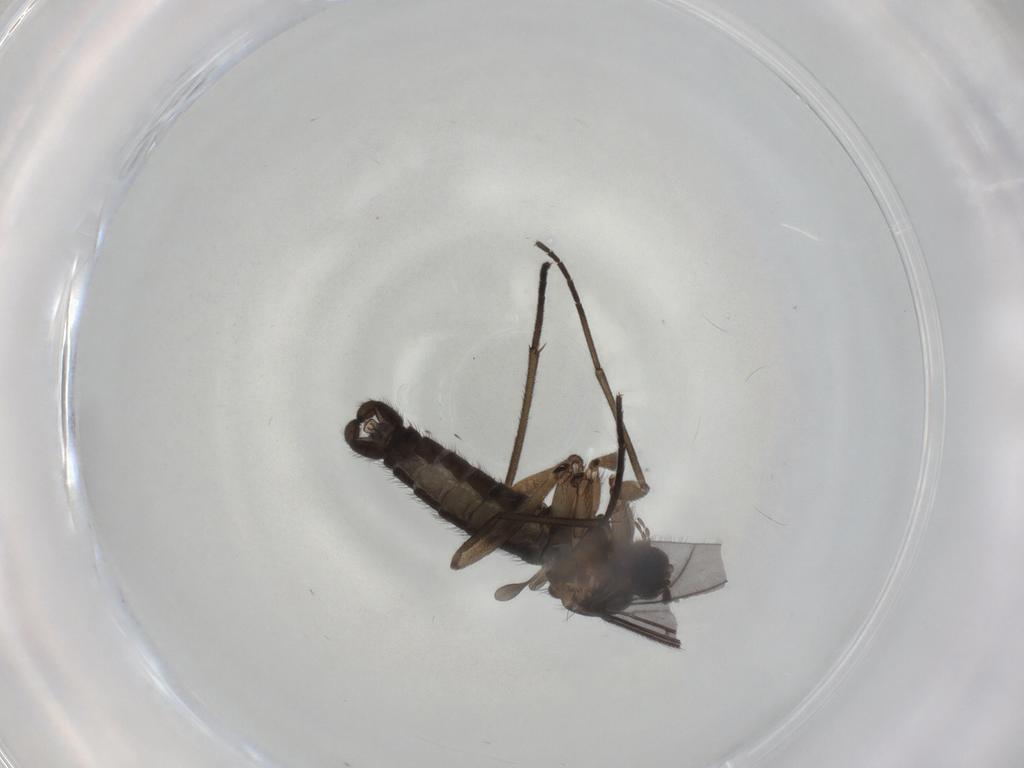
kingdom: Animalia
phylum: Arthropoda
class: Insecta
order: Diptera
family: Sciaridae
